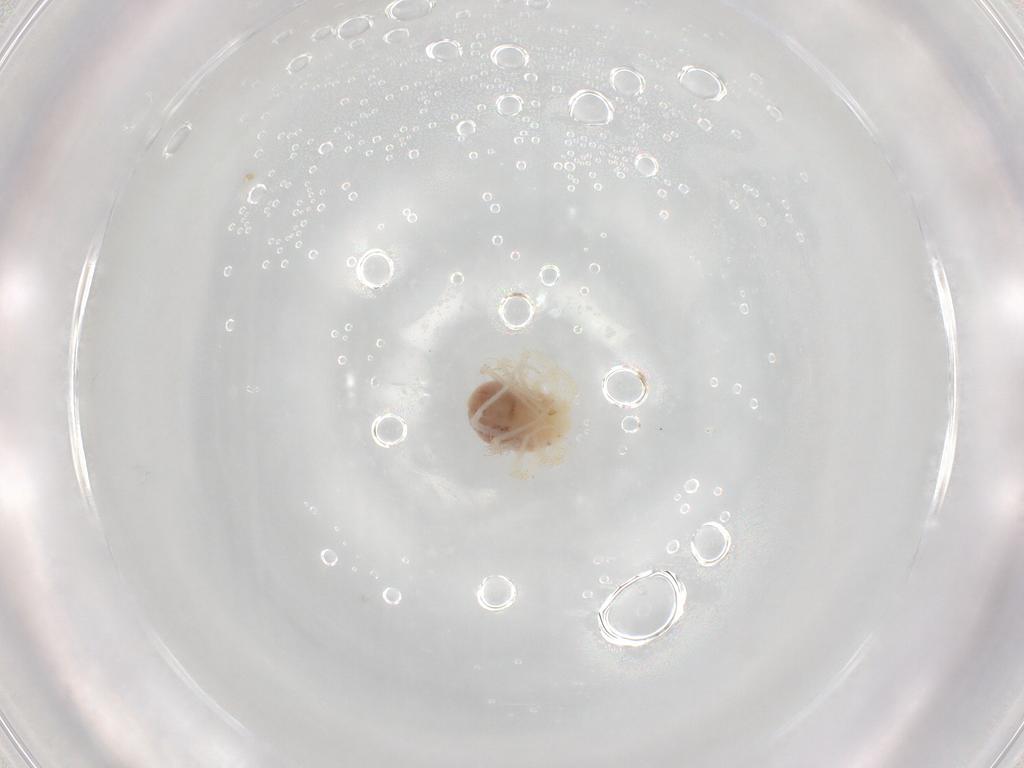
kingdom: Animalia
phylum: Arthropoda
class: Arachnida
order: Trombidiformes
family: Anystidae
